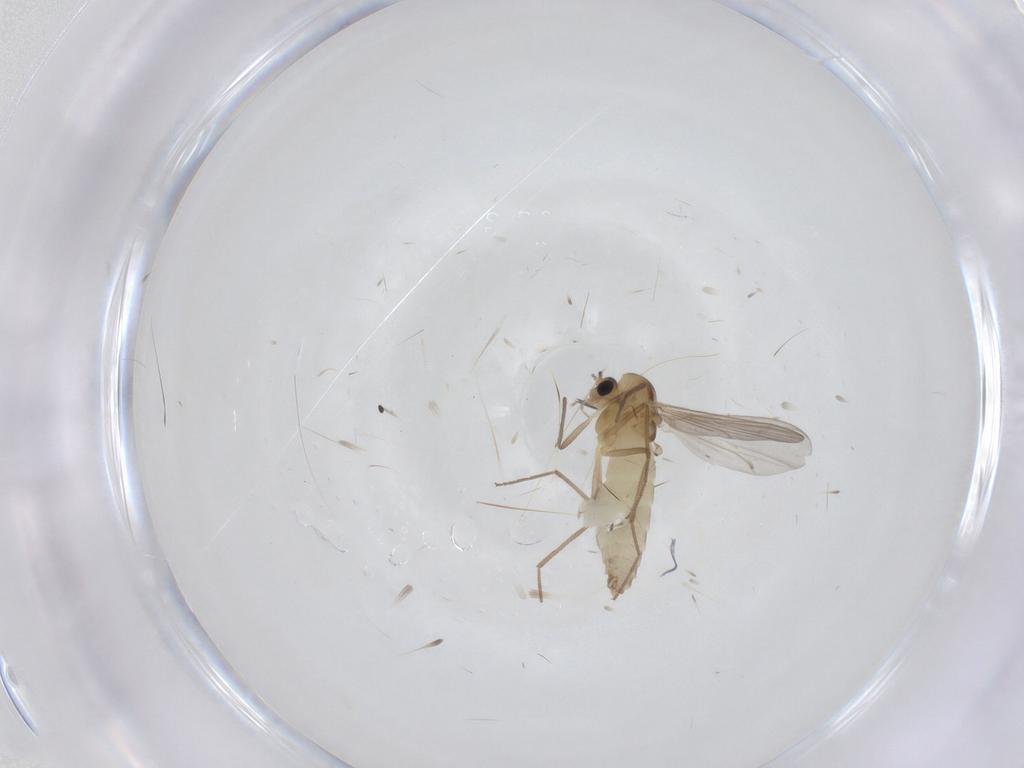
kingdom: Animalia
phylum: Arthropoda
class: Insecta
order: Diptera
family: Chironomidae
